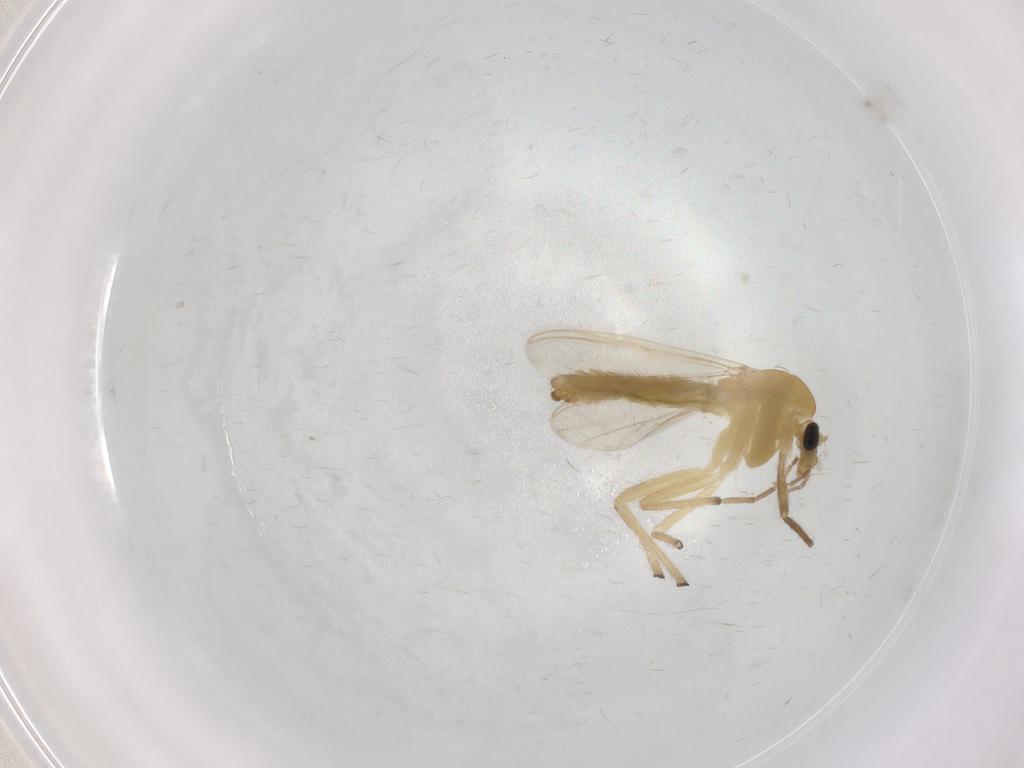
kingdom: Animalia
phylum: Arthropoda
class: Insecta
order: Diptera
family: Chironomidae
